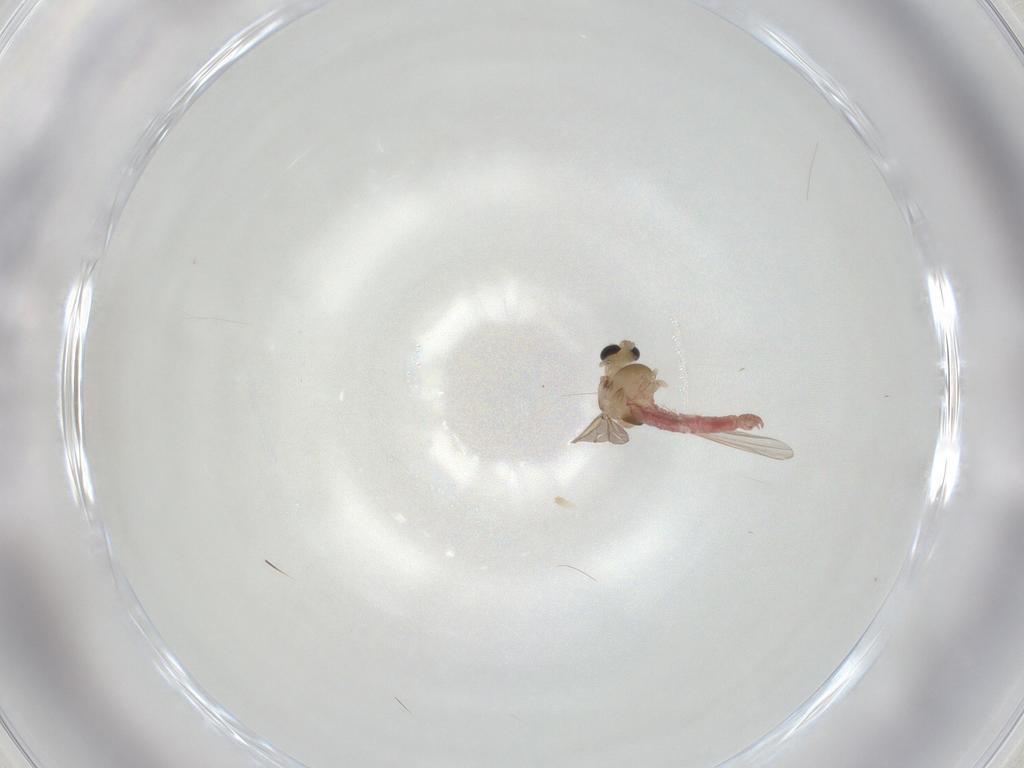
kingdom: Animalia
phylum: Arthropoda
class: Insecta
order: Diptera
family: Chironomidae
